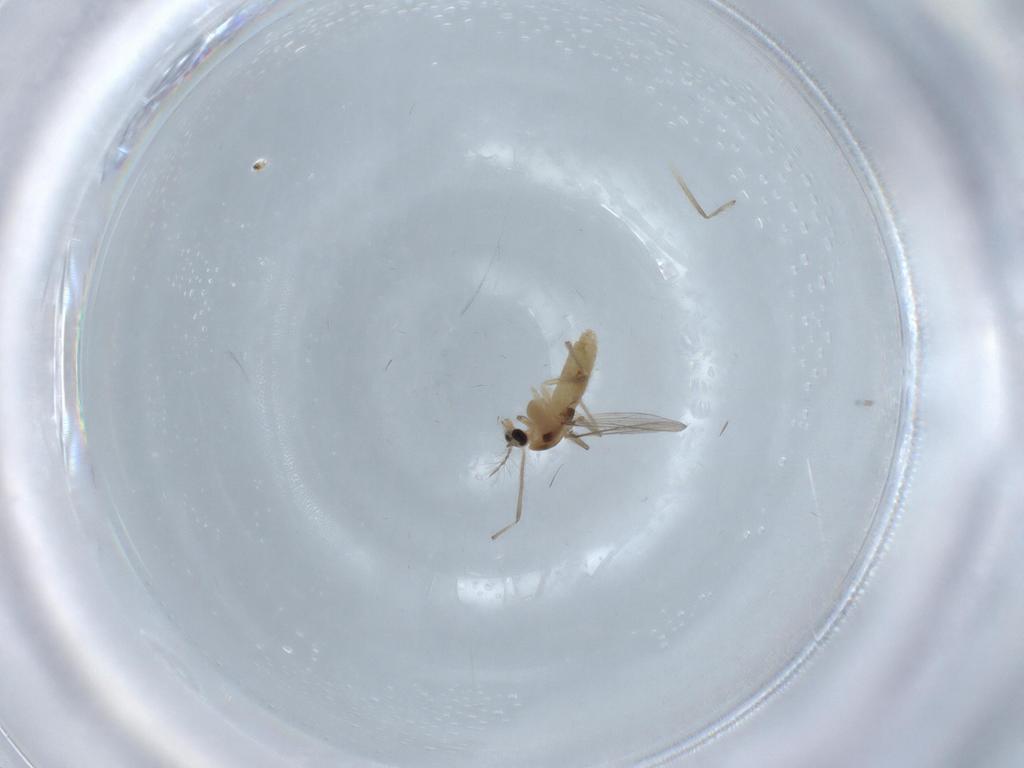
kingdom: Animalia
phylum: Arthropoda
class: Insecta
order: Diptera
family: Chironomidae
